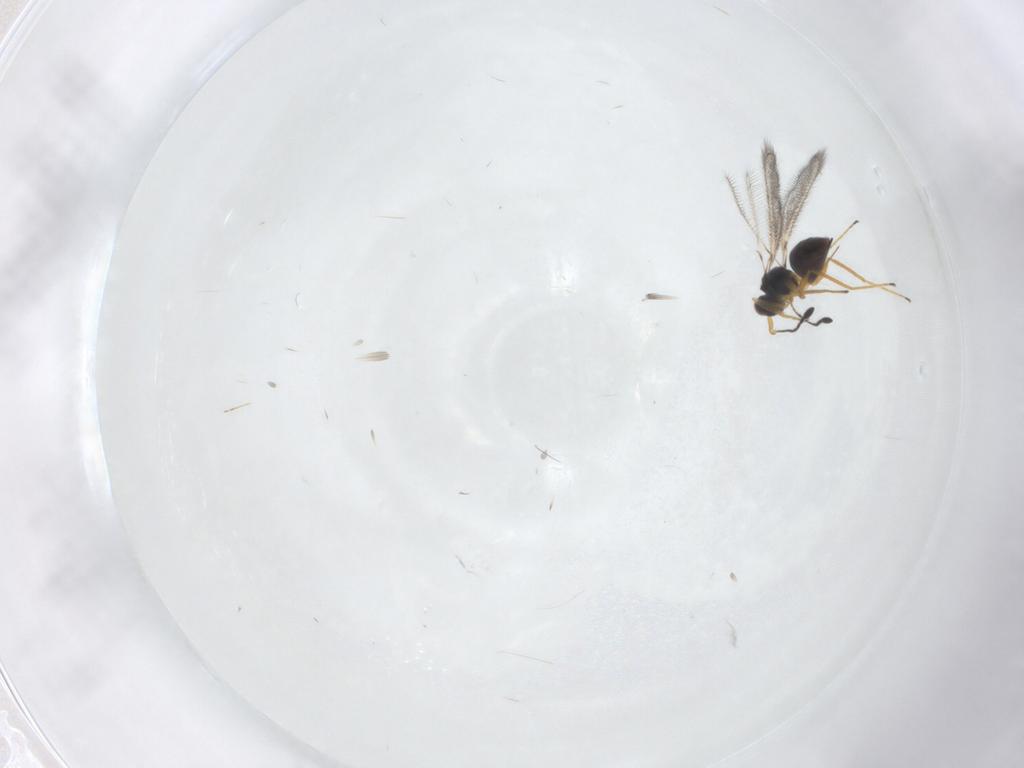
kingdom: Animalia
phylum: Arthropoda
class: Insecta
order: Hymenoptera
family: Mymaridae
